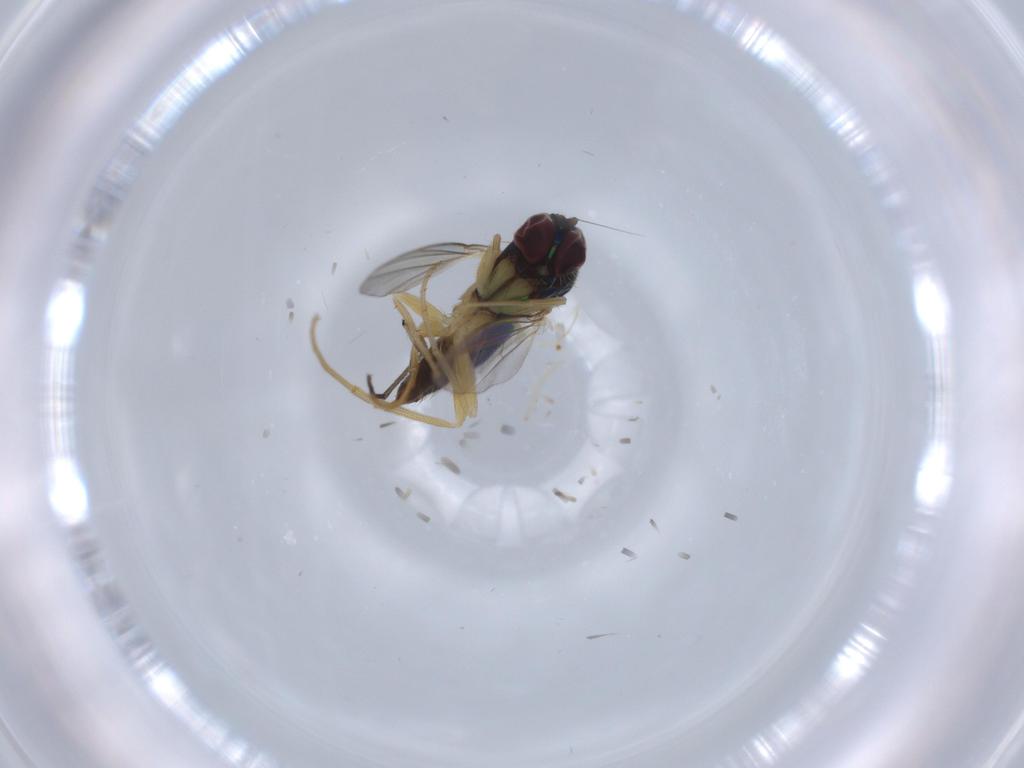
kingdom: Animalia
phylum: Arthropoda
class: Insecta
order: Diptera
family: Dolichopodidae
